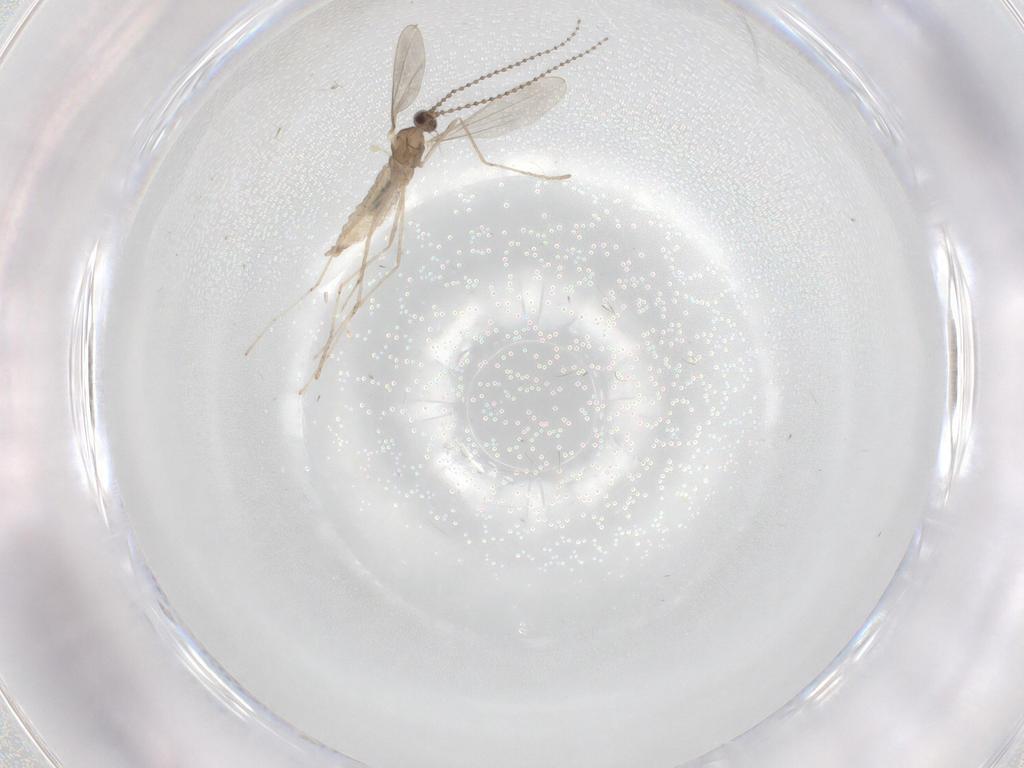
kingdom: Animalia
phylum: Arthropoda
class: Insecta
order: Diptera
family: Cecidomyiidae
